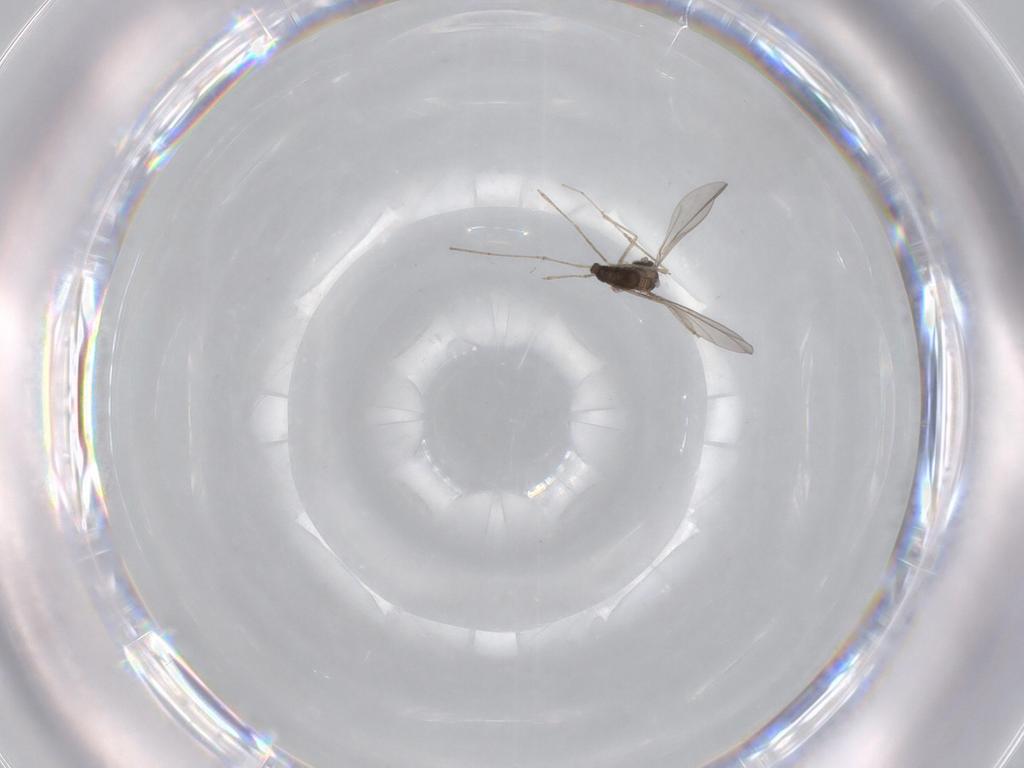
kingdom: Animalia
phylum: Arthropoda
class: Insecta
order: Diptera
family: Cecidomyiidae
